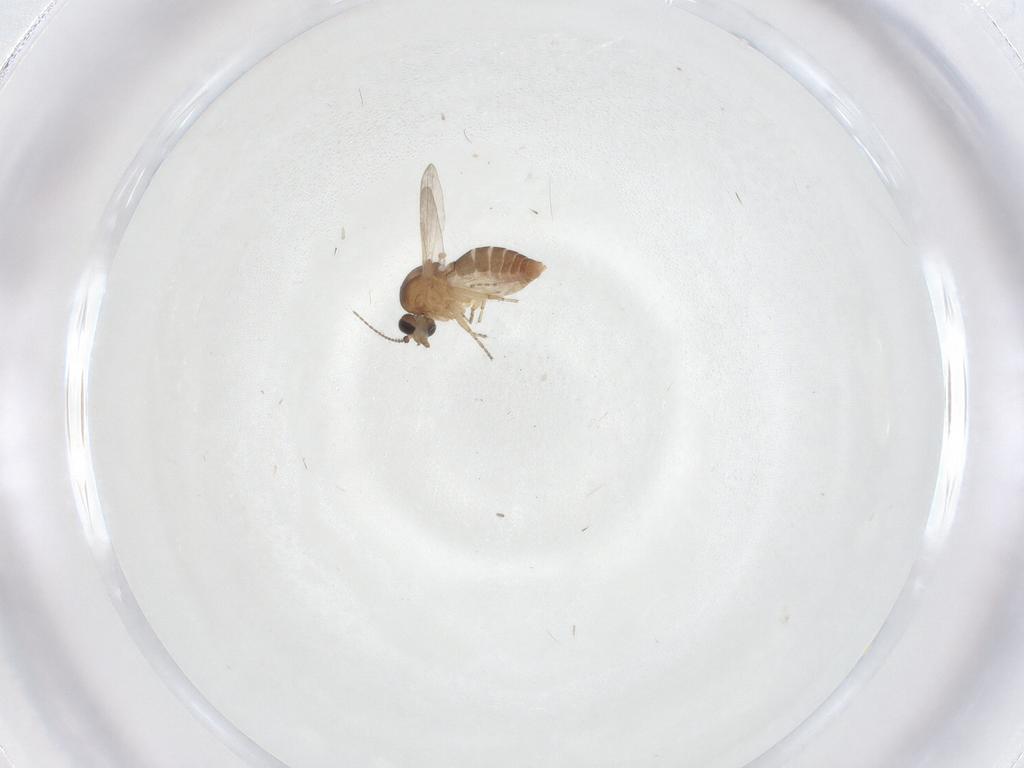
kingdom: Animalia
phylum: Arthropoda
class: Insecta
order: Diptera
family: Ceratopogonidae
